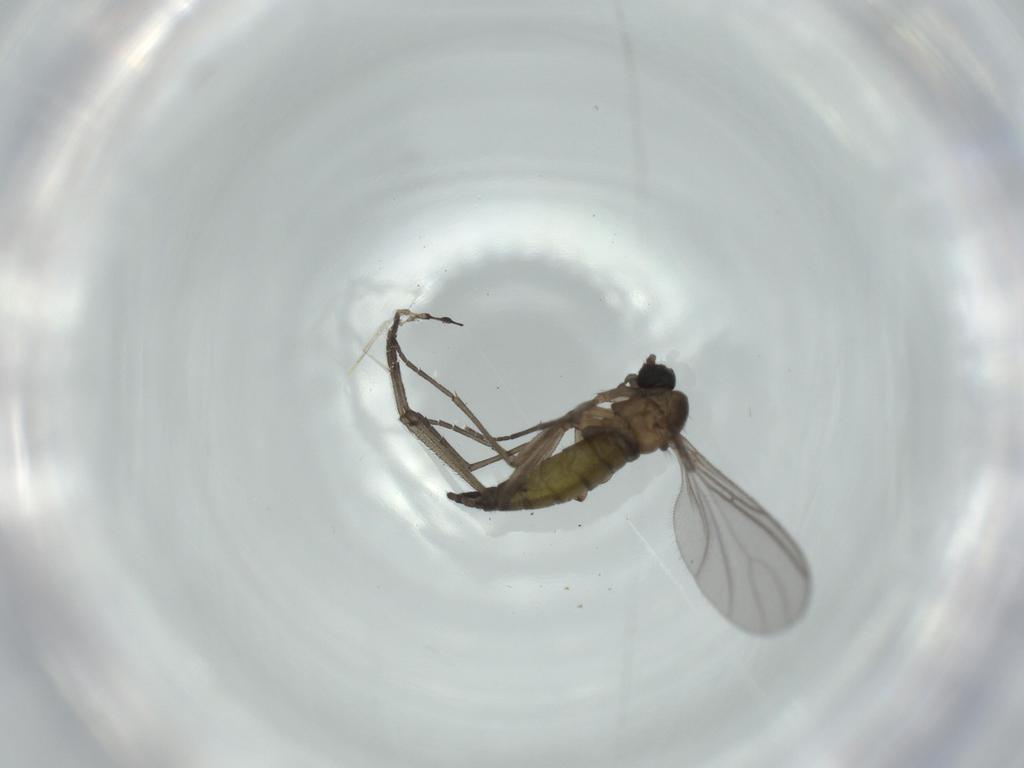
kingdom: Animalia
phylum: Arthropoda
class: Insecta
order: Diptera
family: Sciaridae
